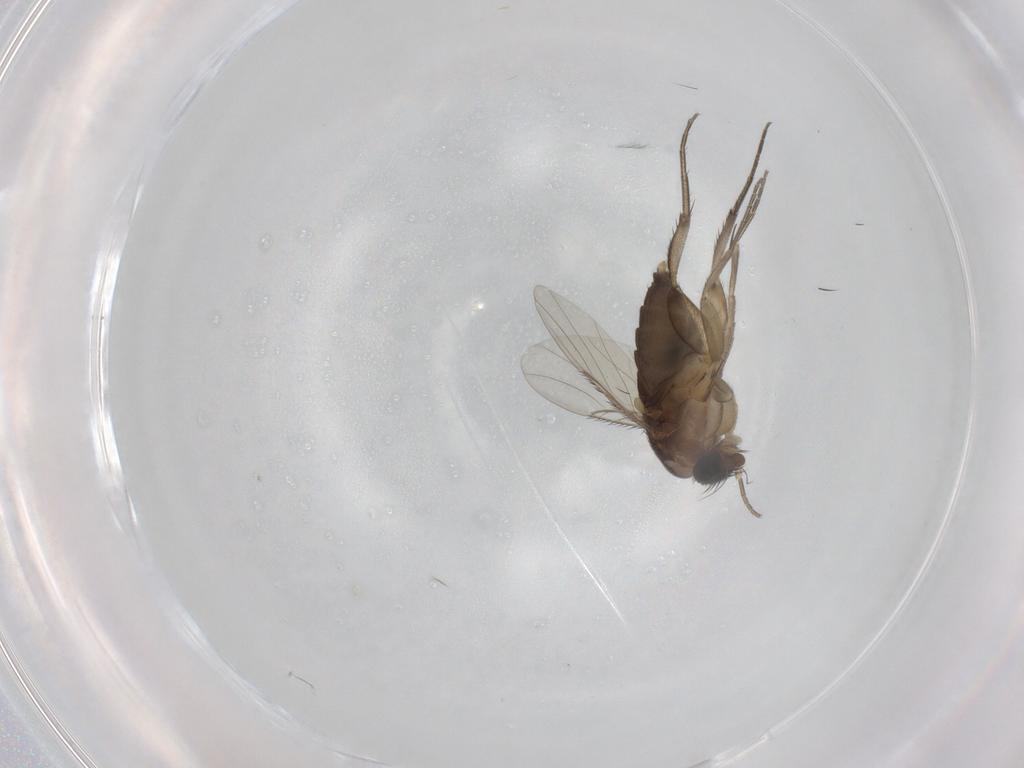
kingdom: Animalia
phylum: Arthropoda
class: Insecta
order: Diptera
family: Phoridae
